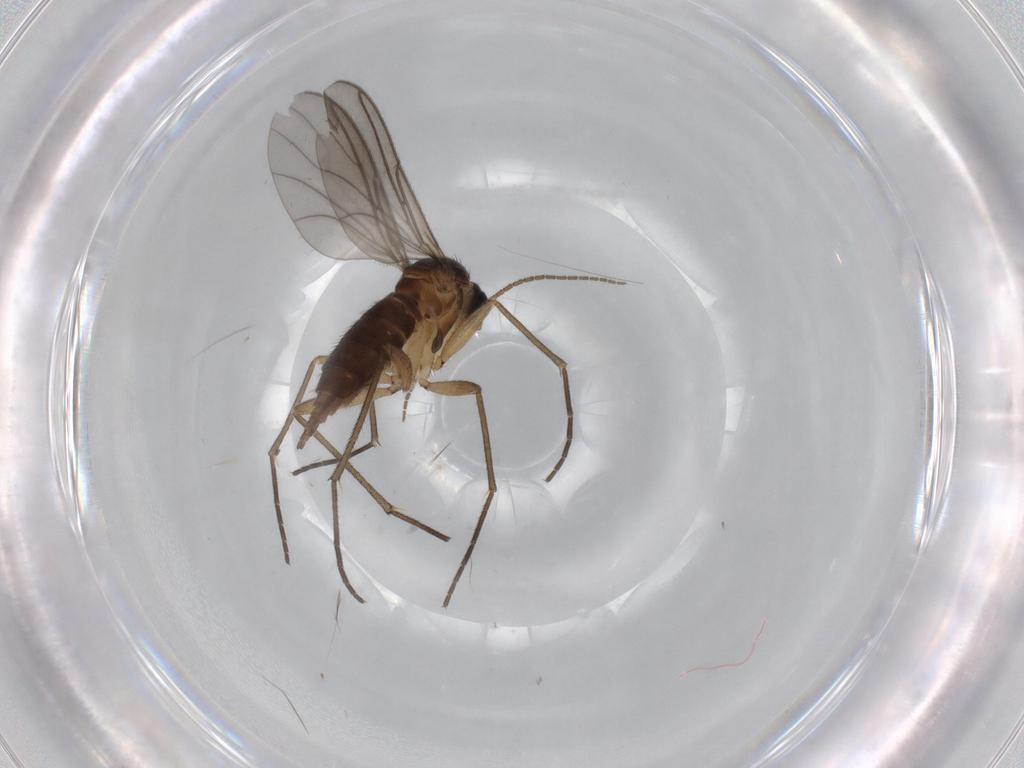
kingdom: Animalia
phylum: Arthropoda
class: Insecta
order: Diptera
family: Sciaridae
